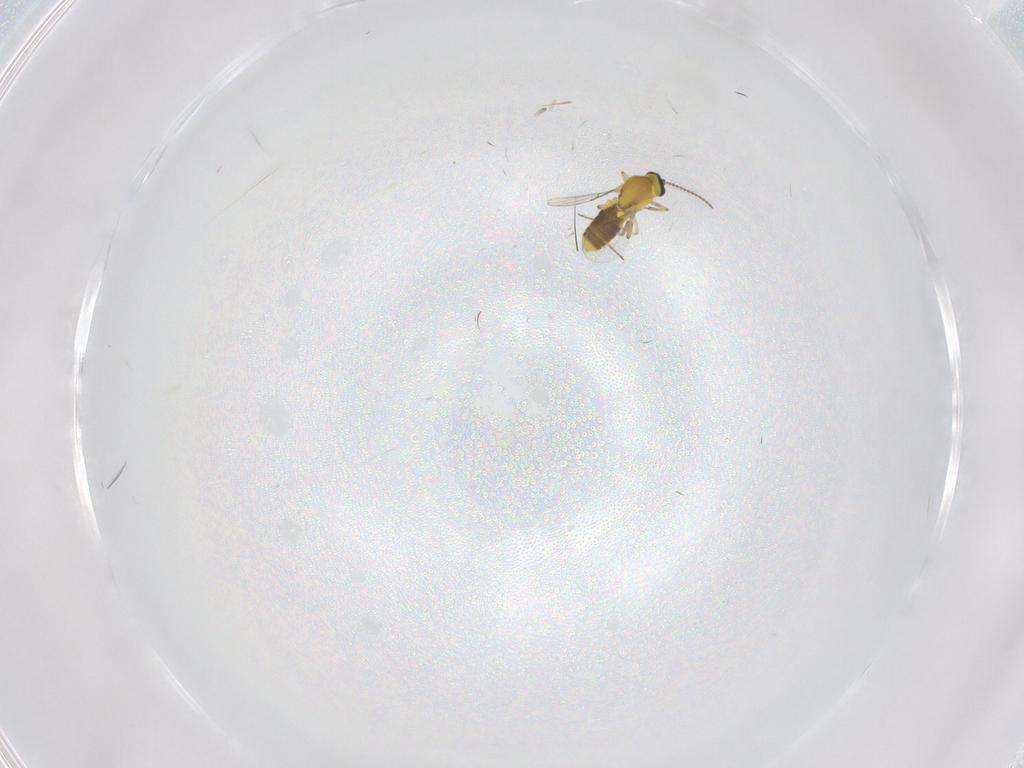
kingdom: Animalia
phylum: Arthropoda
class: Insecta
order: Diptera
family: Ceratopogonidae
